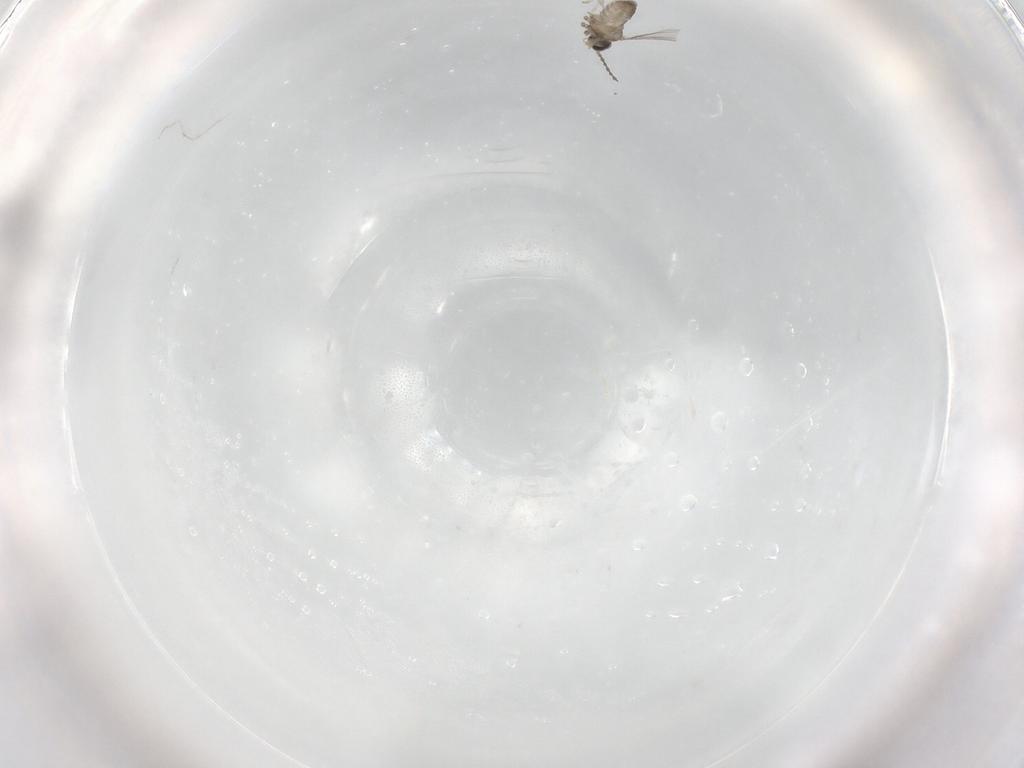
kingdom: Animalia
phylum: Arthropoda
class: Insecta
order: Diptera
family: Cecidomyiidae
